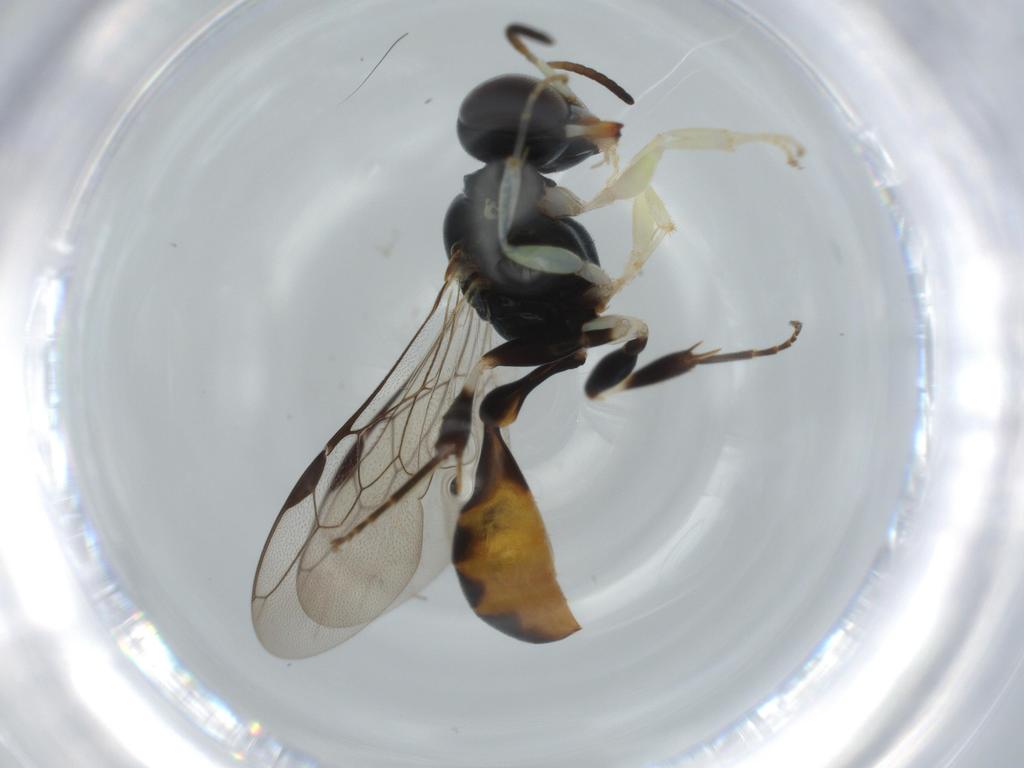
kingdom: Animalia
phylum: Arthropoda
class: Insecta
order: Hymenoptera
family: Crabronidae
